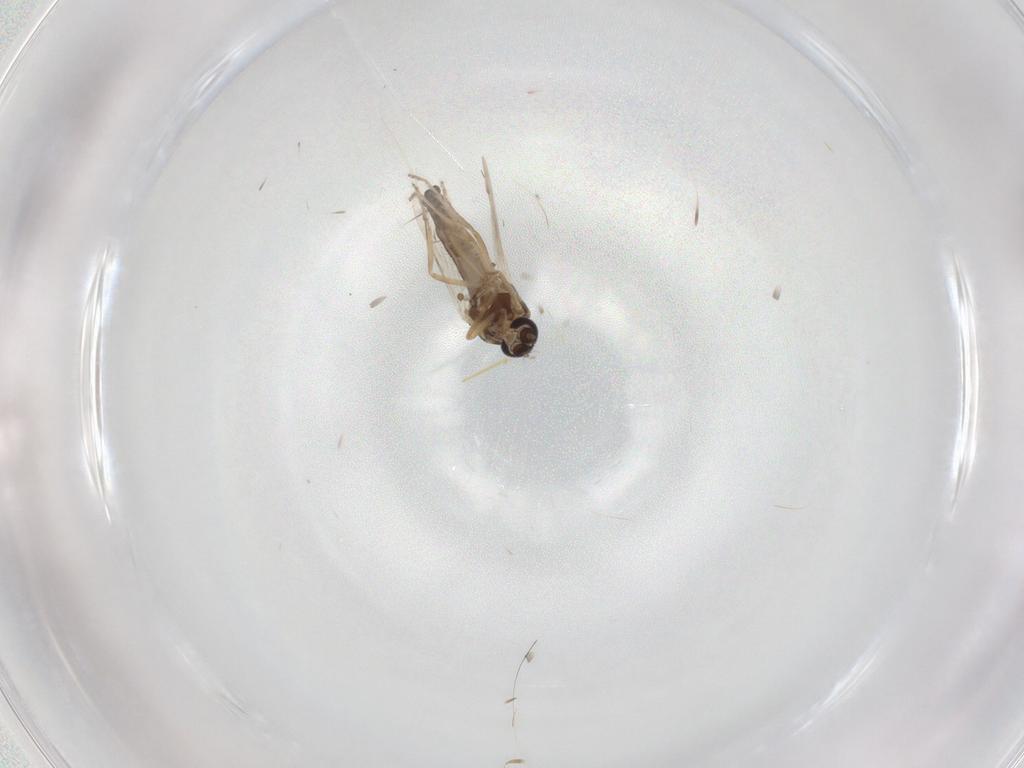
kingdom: Animalia
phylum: Arthropoda
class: Insecta
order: Diptera
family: Ceratopogonidae
